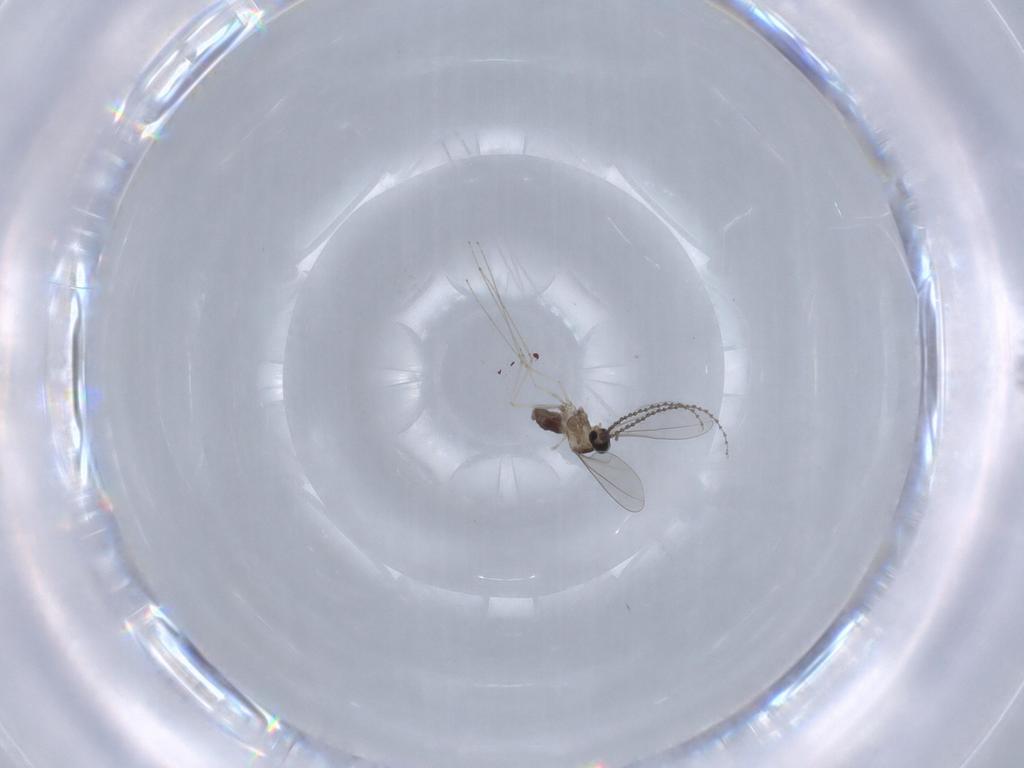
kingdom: Animalia
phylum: Arthropoda
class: Insecta
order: Diptera
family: Cecidomyiidae
